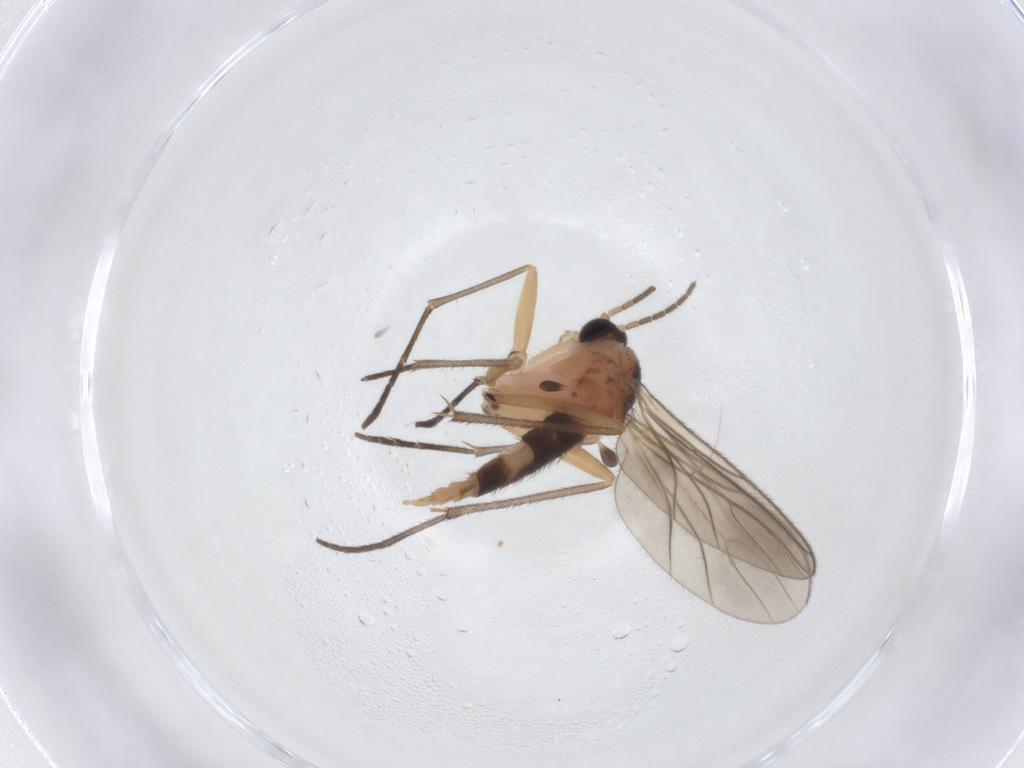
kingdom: Animalia
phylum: Arthropoda
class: Insecta
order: Diptera
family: Sciaridae
